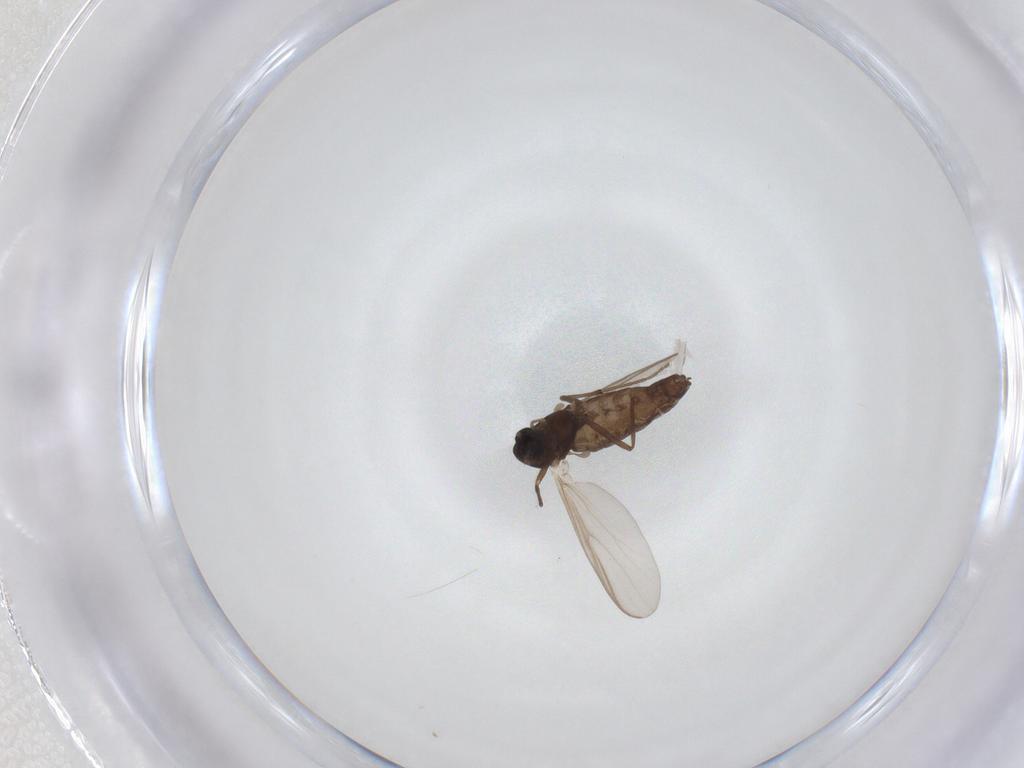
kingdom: Animalia
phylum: Arthropoda
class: Insecta
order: Diptera
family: Chironomidae
